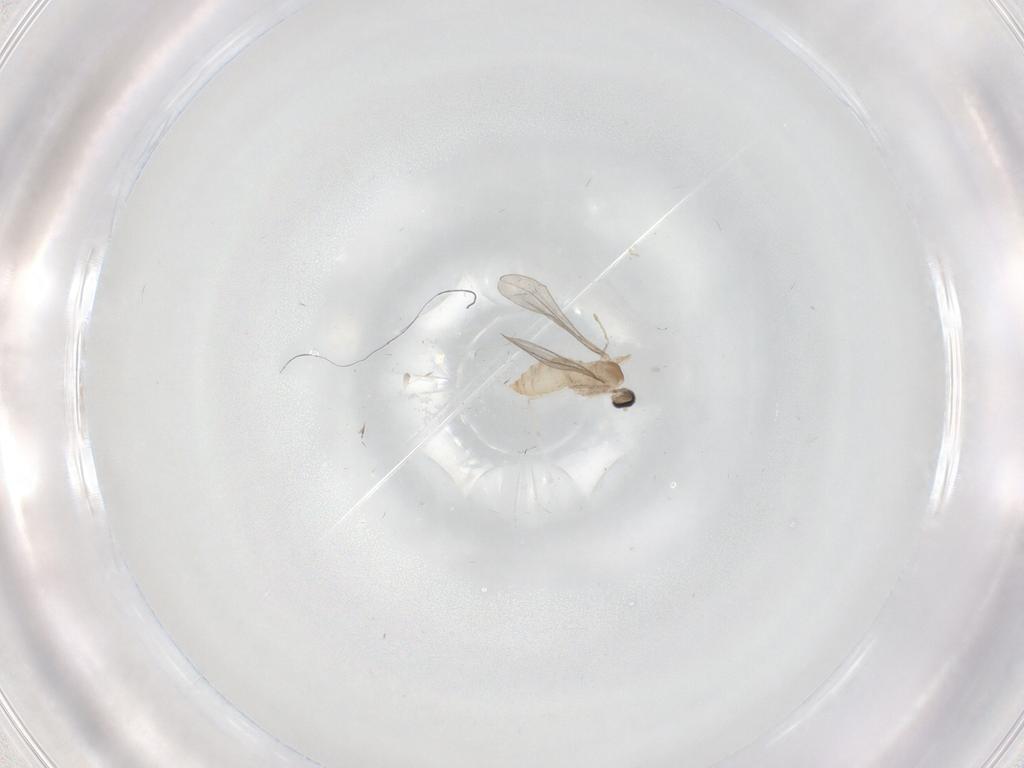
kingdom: Animalia
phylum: Arthropoda
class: Insecta
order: Diptera
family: Cecidomyiidae
